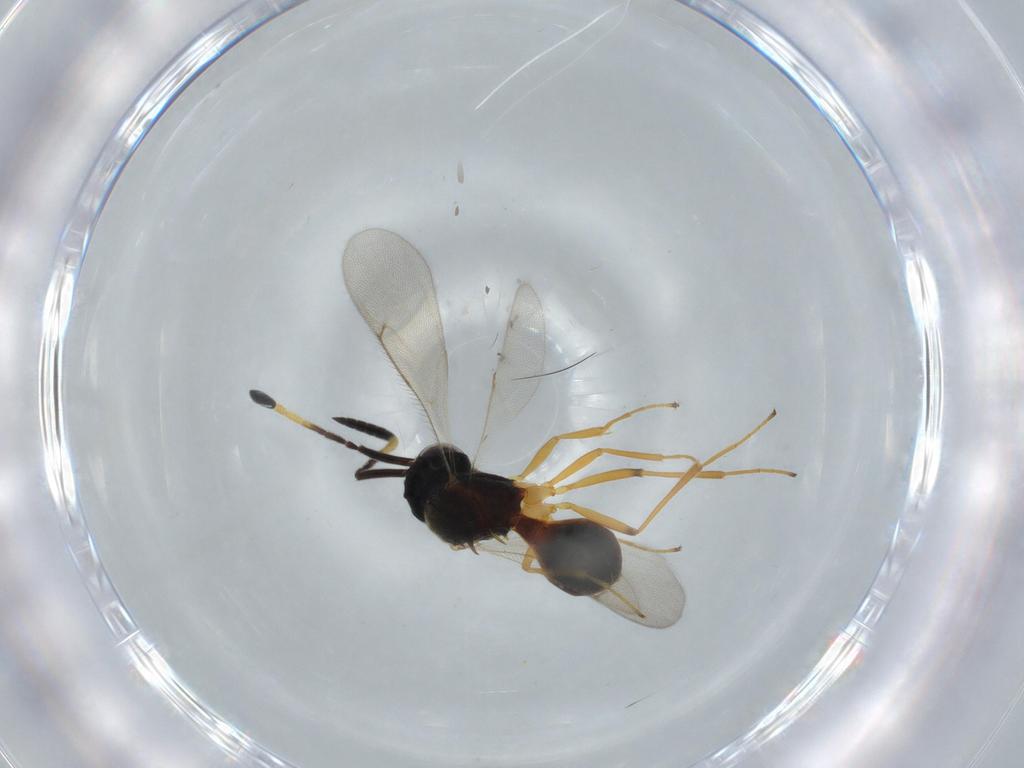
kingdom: Animalia
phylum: Arthropoda
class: Insecta
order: Hymenoptera
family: Scelionidae
